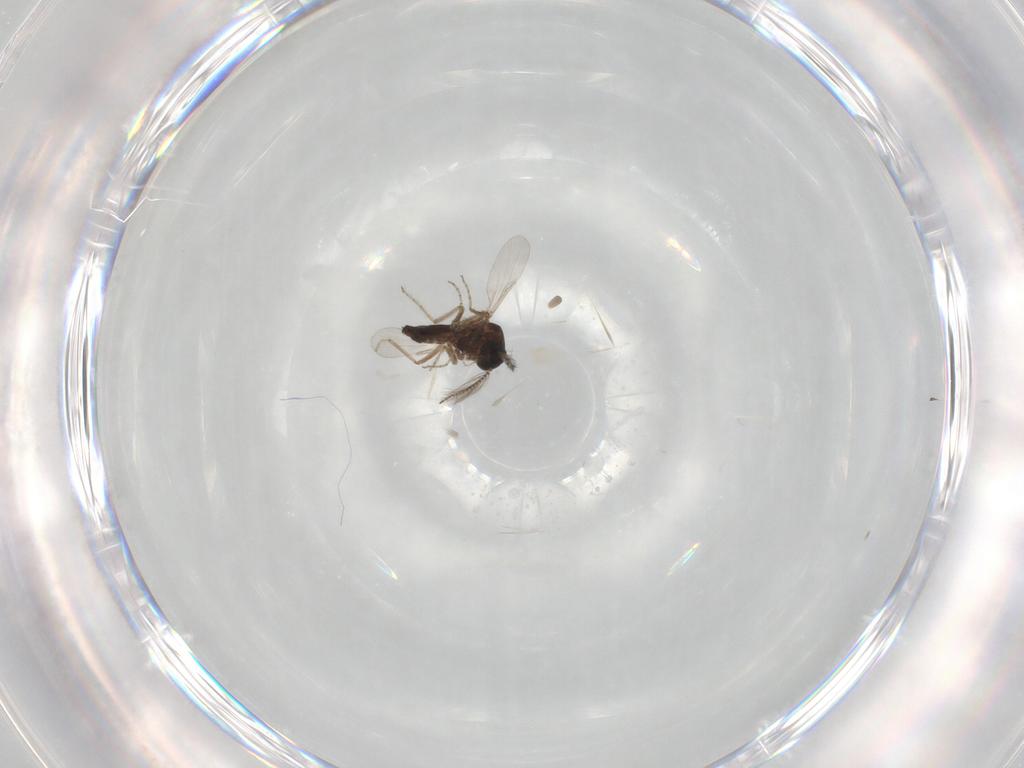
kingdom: Animalia
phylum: Arthropoda
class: Insecta
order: Diptera
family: Ceratopogonidae
